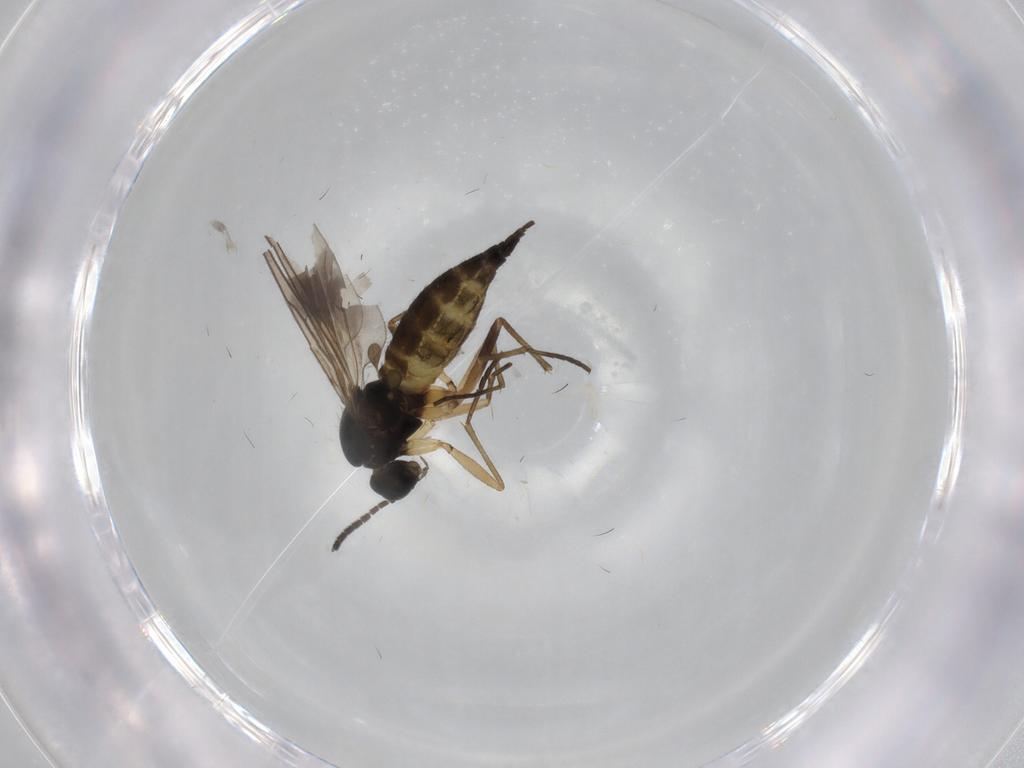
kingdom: Animalia
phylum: Arthropoda
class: Insecta
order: Diptera
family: Sciaridae
